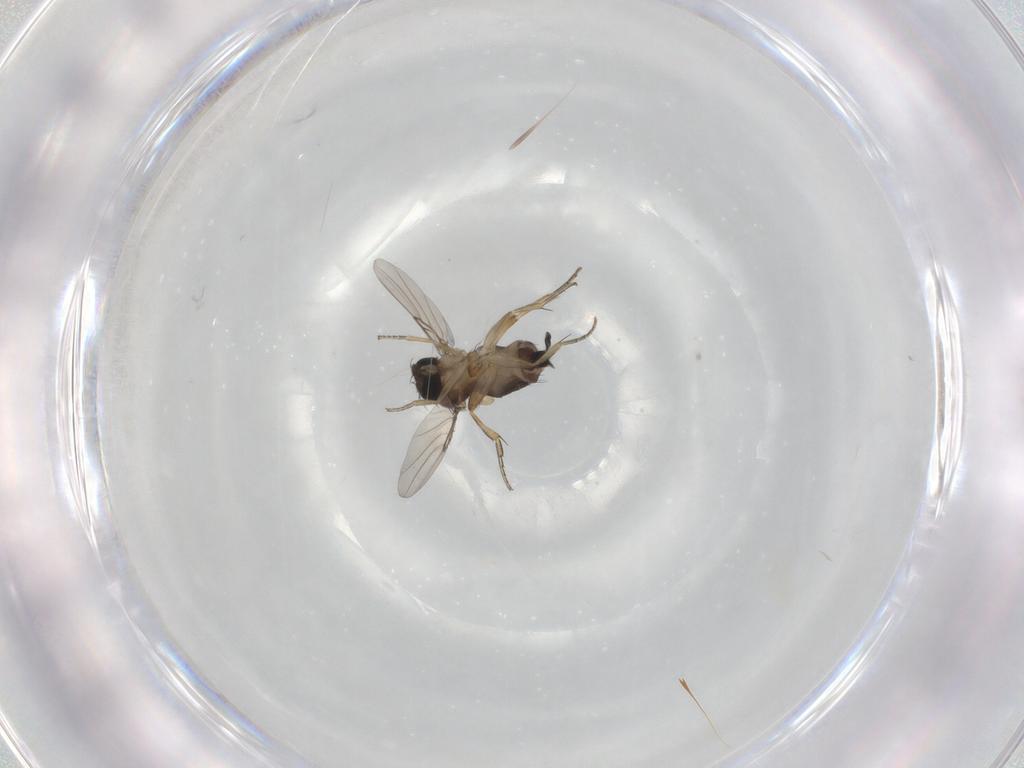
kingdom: Animalia
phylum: Arthropoda
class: Insecta
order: Diptera
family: Phoridae
